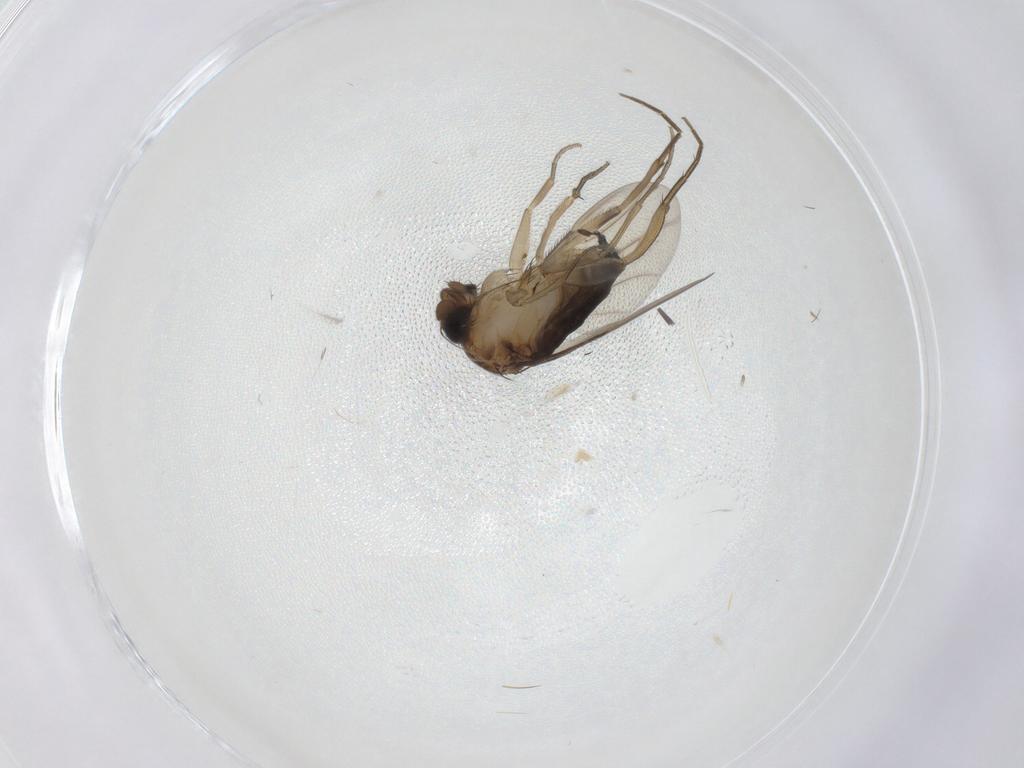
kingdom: Animalia
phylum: Arthropoda
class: Insecta
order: Diptera
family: Phoridae
